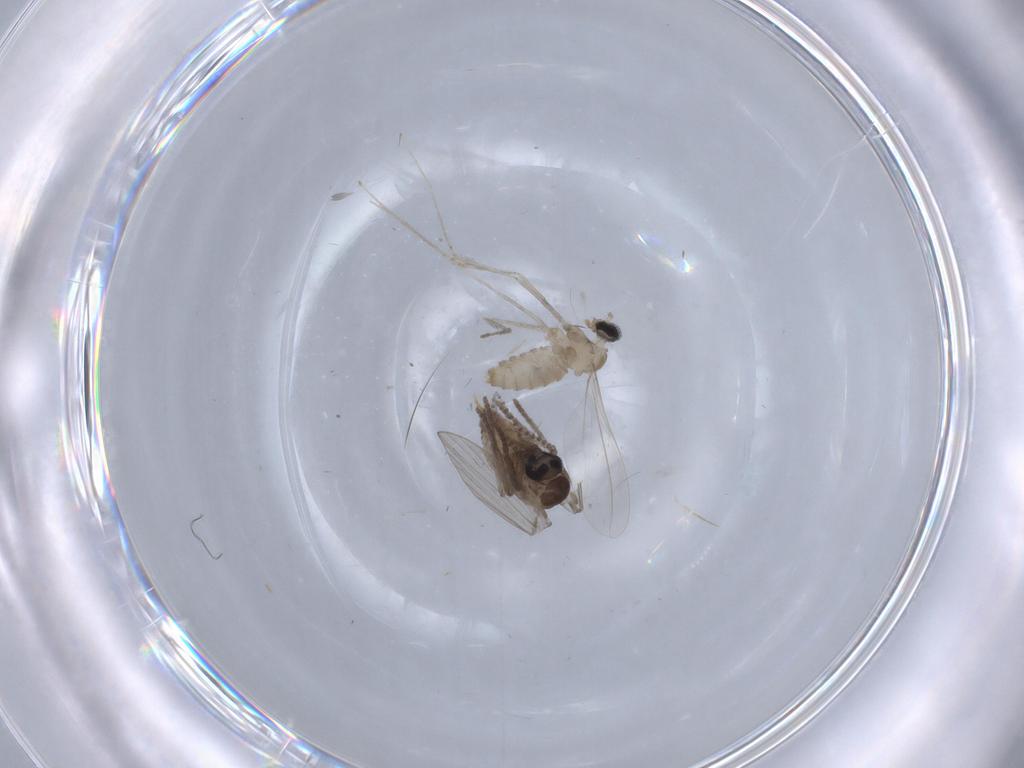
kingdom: Animalia
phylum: Arthropoda
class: Insecta
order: Diptera
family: Psychodidae
